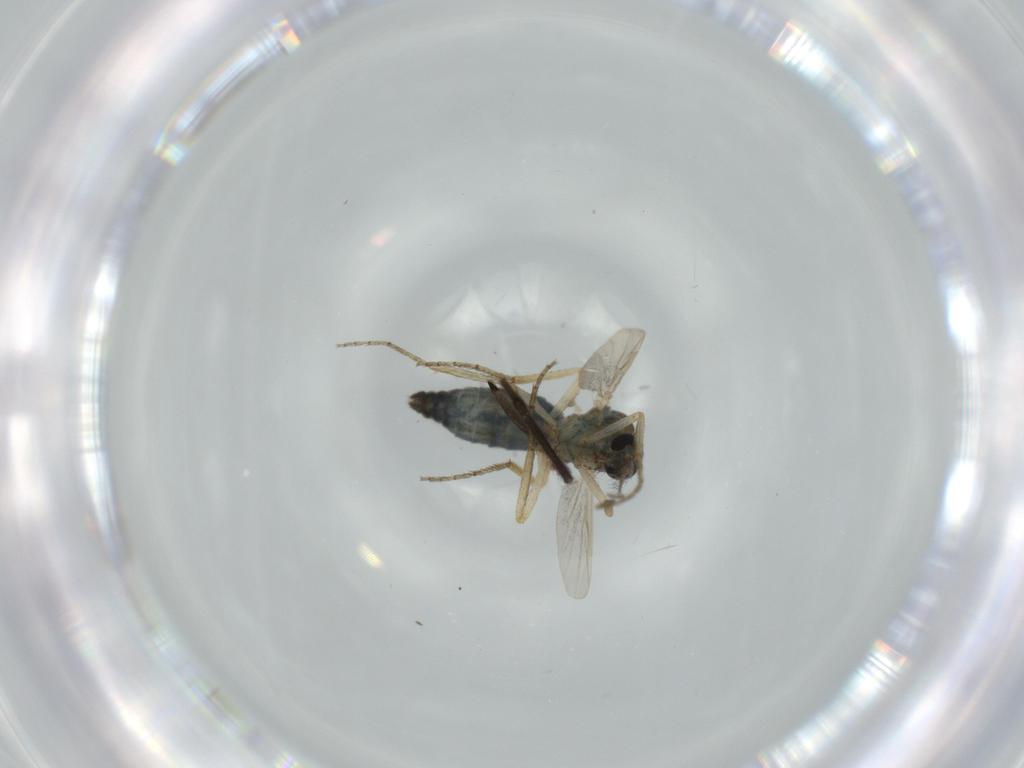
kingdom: Animalia
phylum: Arthropoda
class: Insecta
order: Diptera
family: Ceratopogonidae
